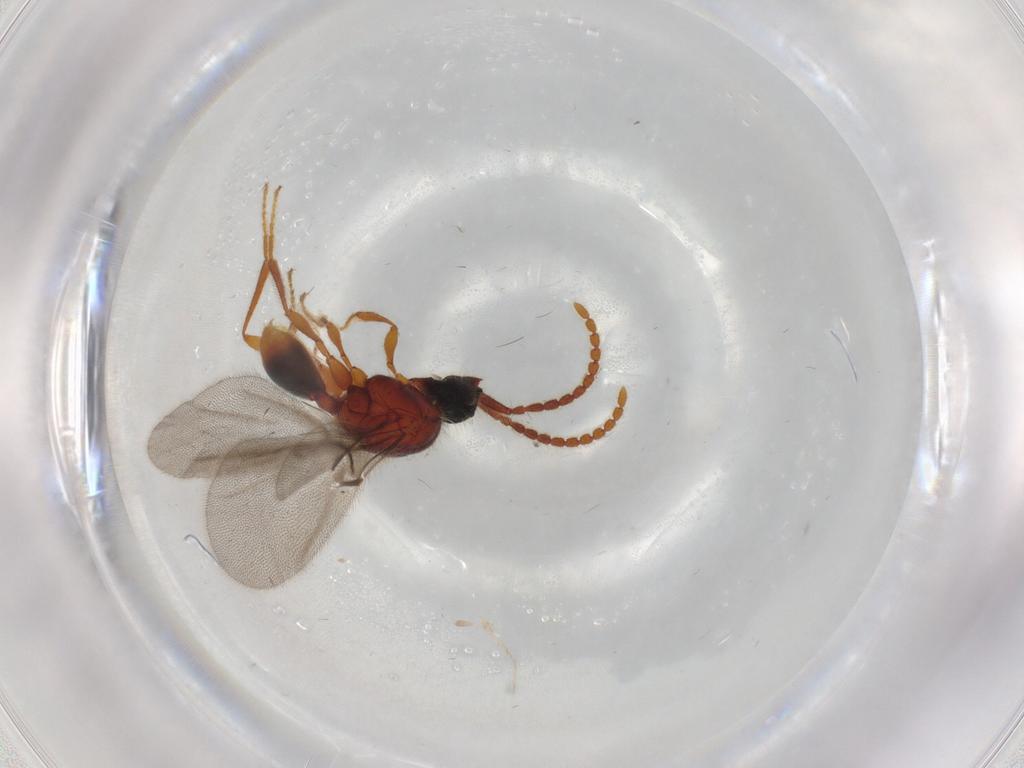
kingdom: Animalia
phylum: Arthropoda
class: Insecta
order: Hymenoptera
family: Diapriidae
